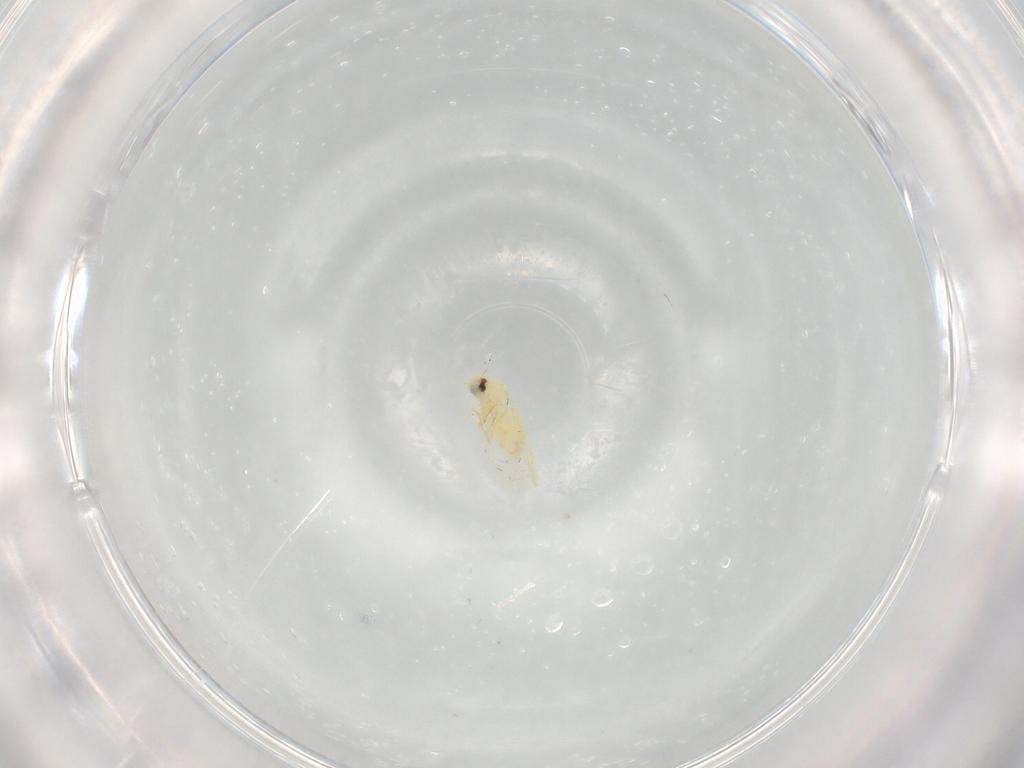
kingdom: Animalia
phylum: Arthropoda
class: Insecta
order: Hemiptera
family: Aleyrodidae
